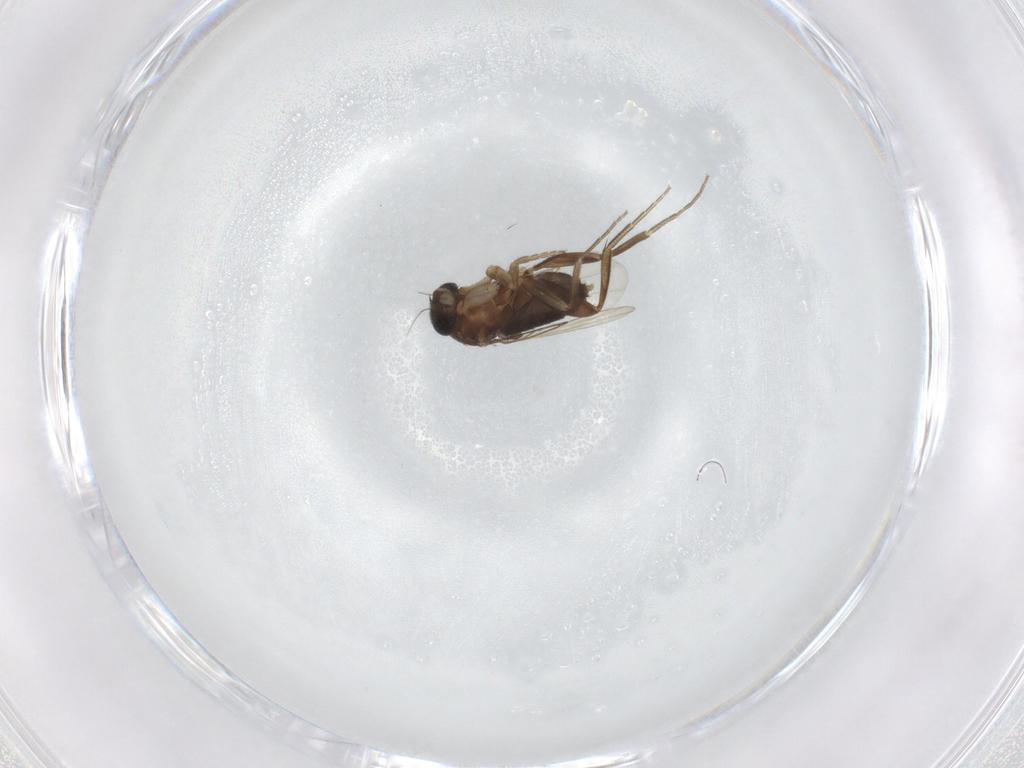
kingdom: Animalia
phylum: Arthropoda
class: Insecta
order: Diptera
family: Phoridae
